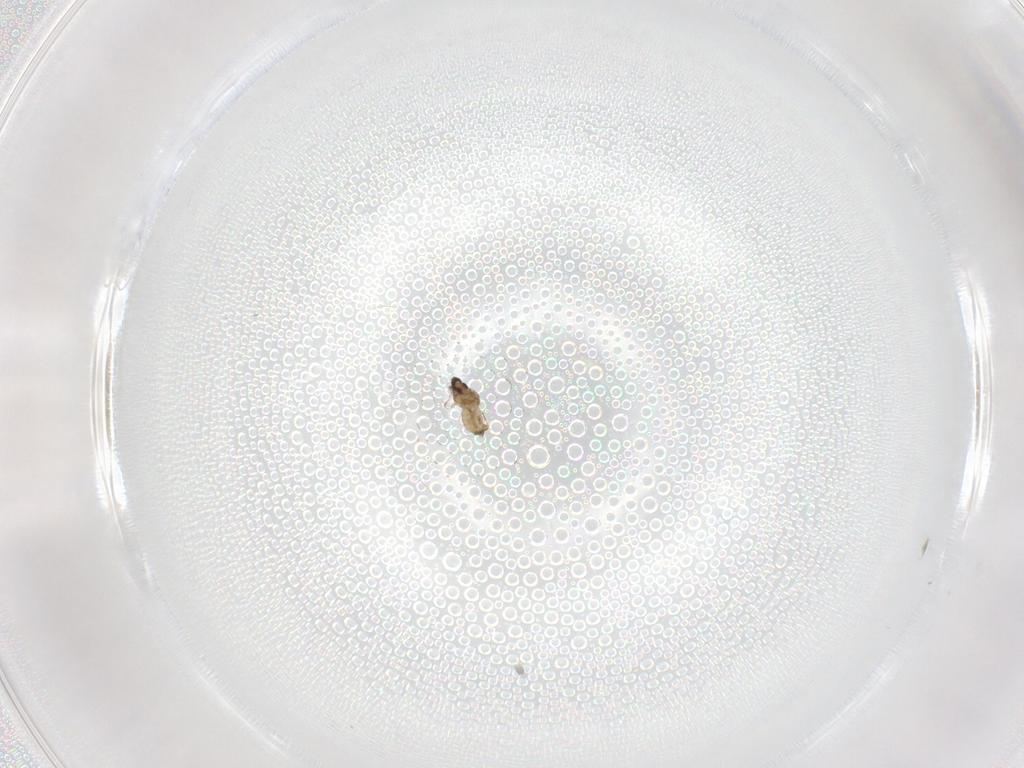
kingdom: Animalia
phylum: Arthropoda
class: Insecta
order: Diptera
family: Cecidomyiidae
